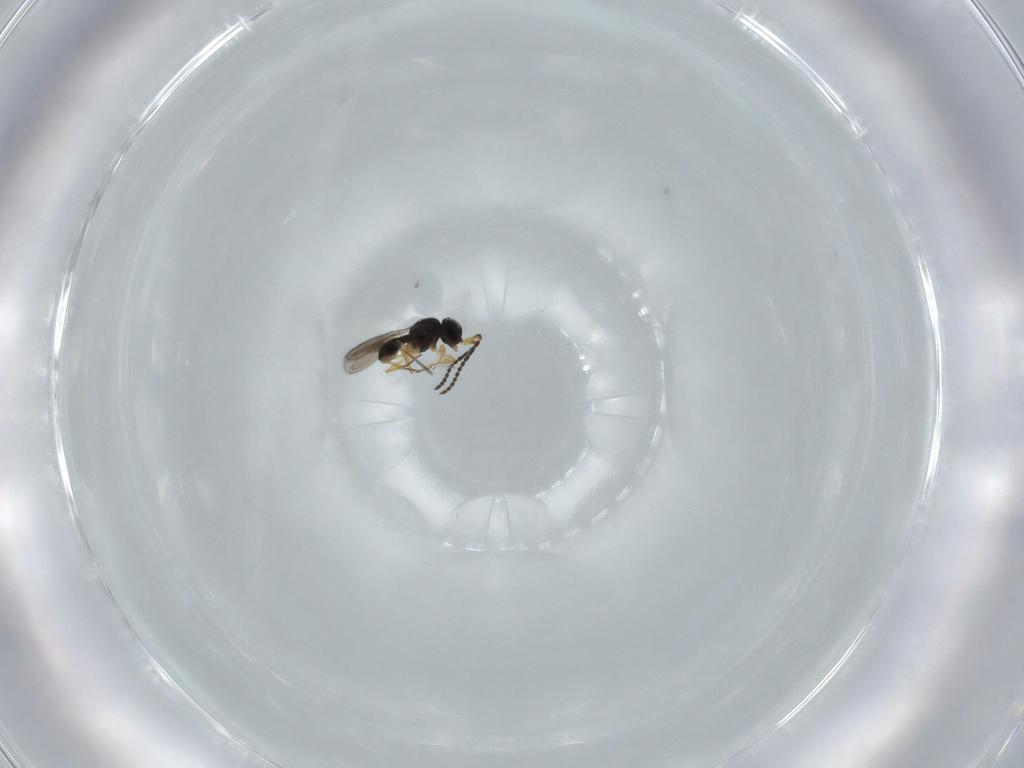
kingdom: Animalia
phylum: Arthropoda
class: Insecta
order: Hymenoptera
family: Scelionidae
